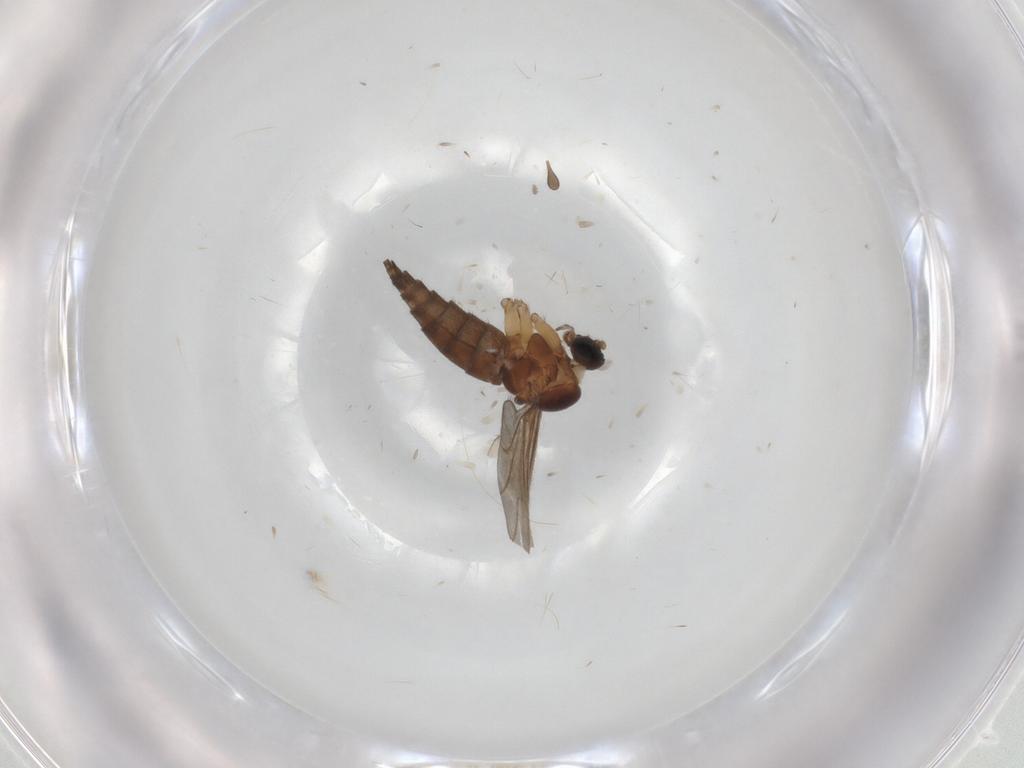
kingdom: Animalia
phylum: Arthropoda
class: Insecta
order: Diptera
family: Sciaridae
